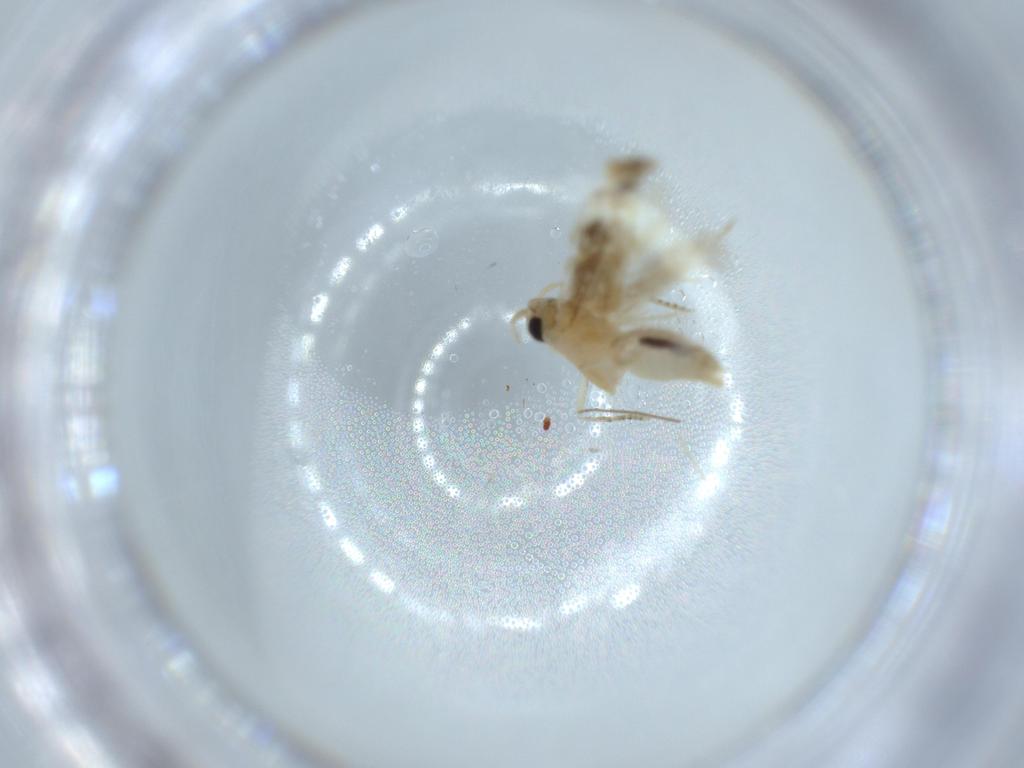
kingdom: Animalia
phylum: Arthropoda
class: Insecta
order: Lepidoptera
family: Bucculatricidae
